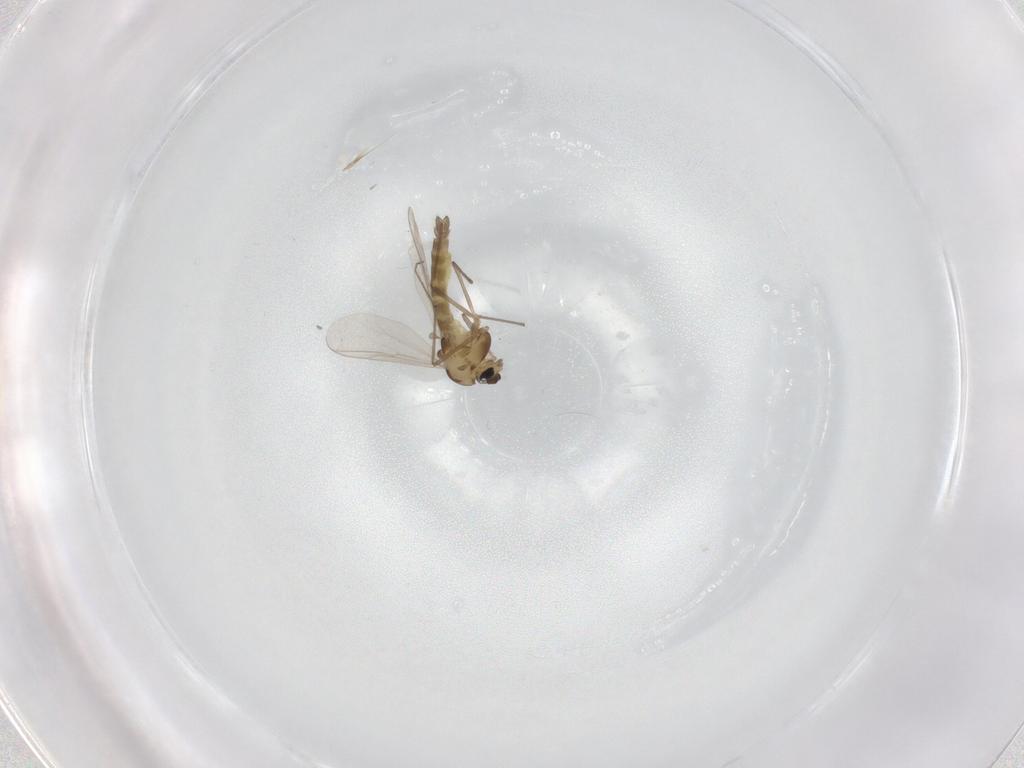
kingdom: Animalia
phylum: Arthropoda
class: Insecta
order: Diptera
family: Chironomidae
